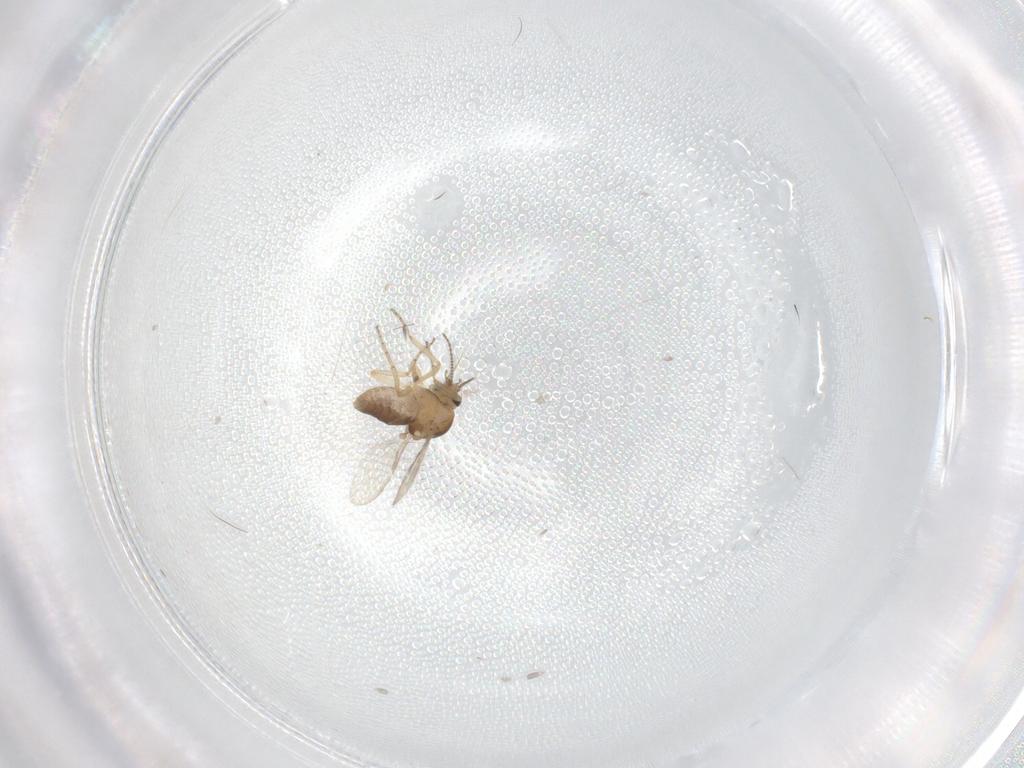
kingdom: Animalia
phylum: Arthropoda
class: Insecta
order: Diptera
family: Ceratopogonidae
